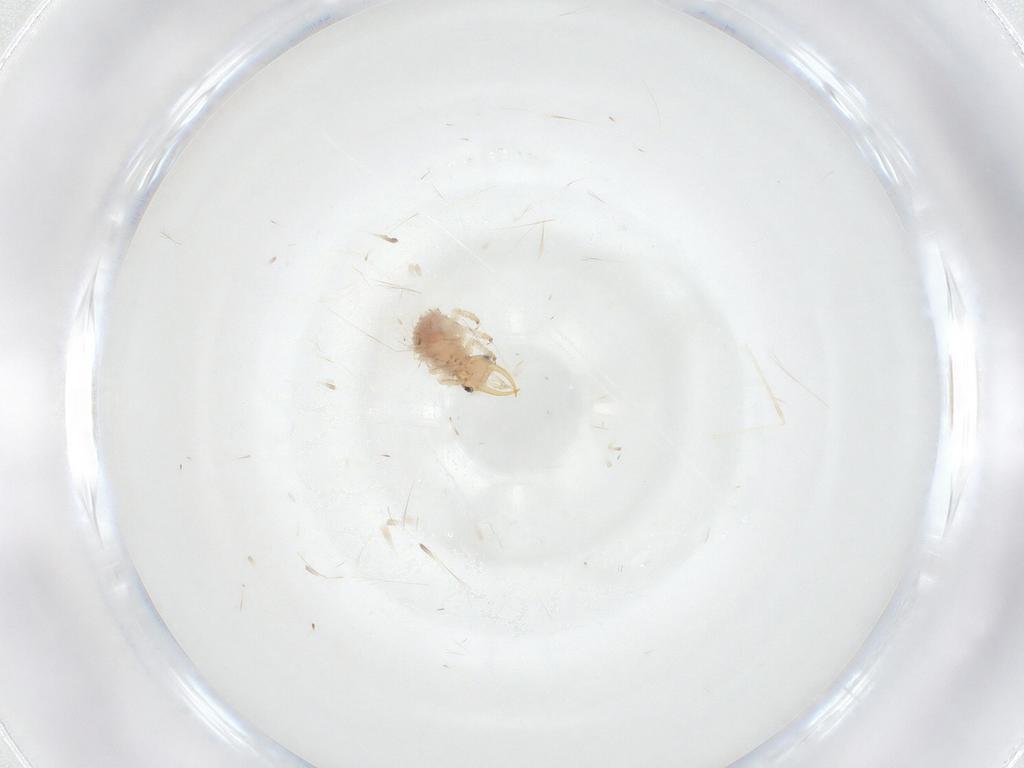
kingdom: Animalia
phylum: Arthropoda
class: Insecta
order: Neuroptera
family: Chrysopidae
